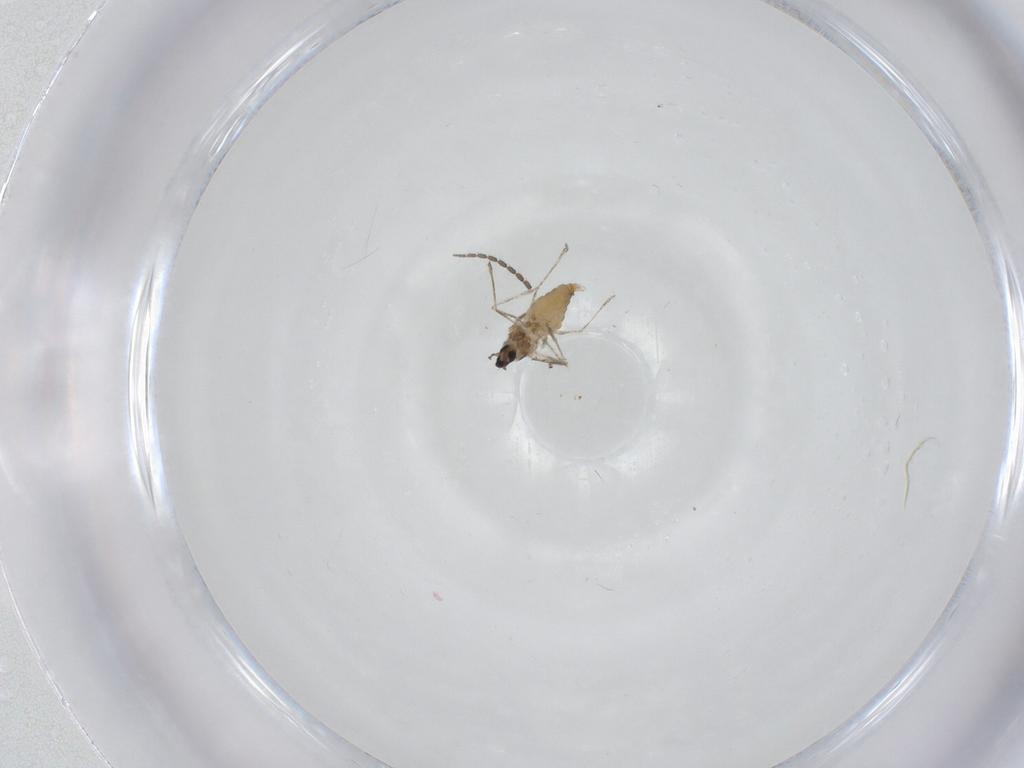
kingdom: Animalia
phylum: Arthropoda
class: Insecta
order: Diptera
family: Cecidomyiidae
